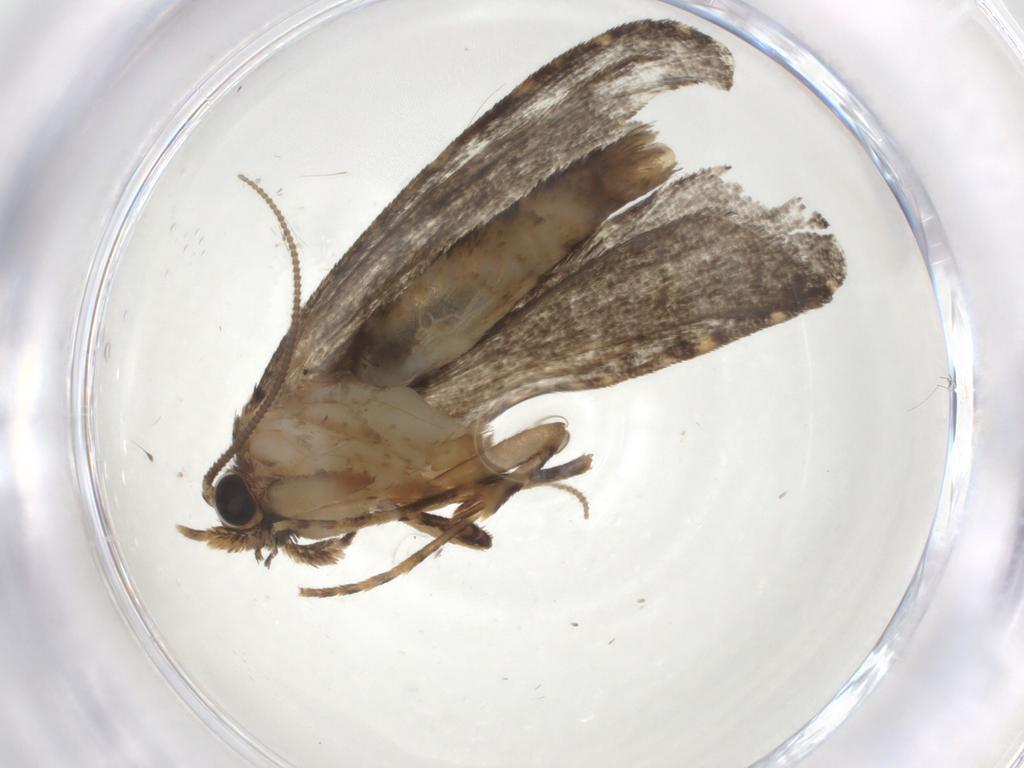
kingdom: Animalia
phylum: Arthropoda
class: Insecta
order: Lepidoptera
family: Tineidae
